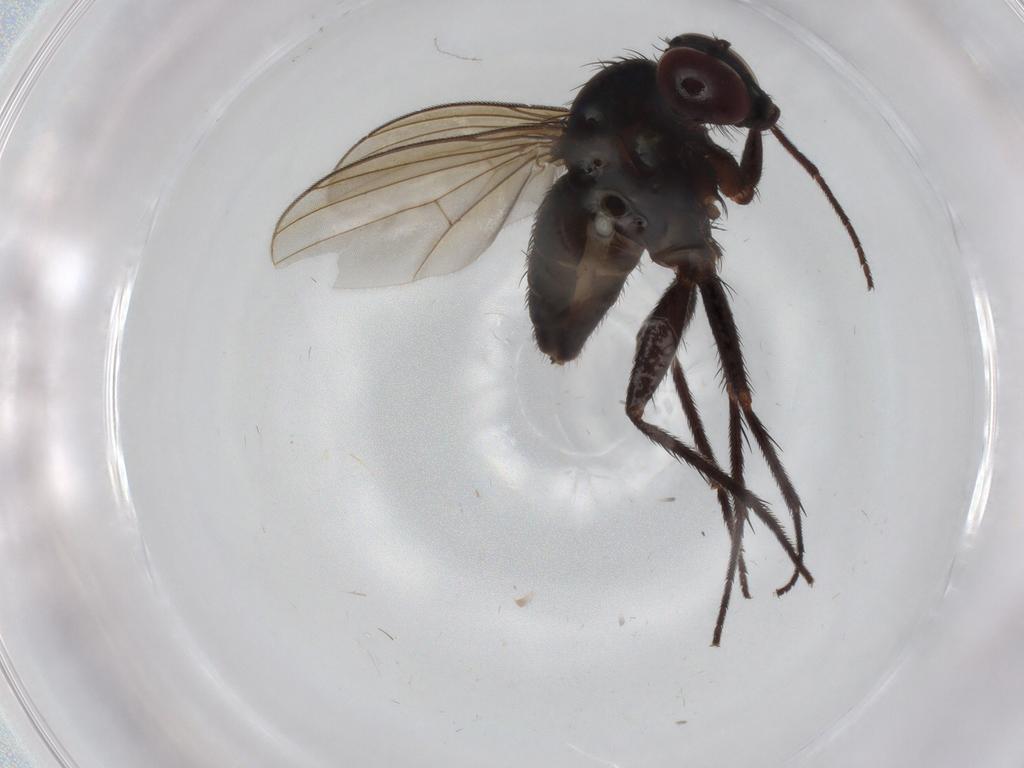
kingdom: Animalia
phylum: Arthropoda
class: Insecta
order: Diptera
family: Dolichopodidae
